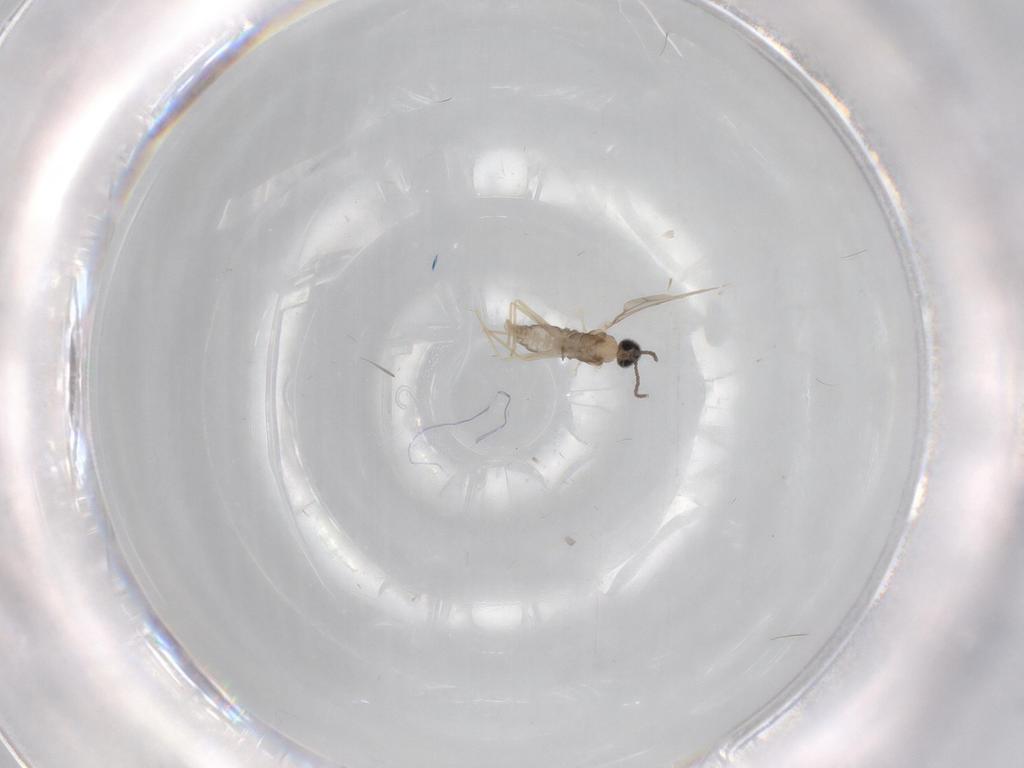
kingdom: Animalia
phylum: Arthropoda
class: Insecta
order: Diptera
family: Cecidomyiidae
